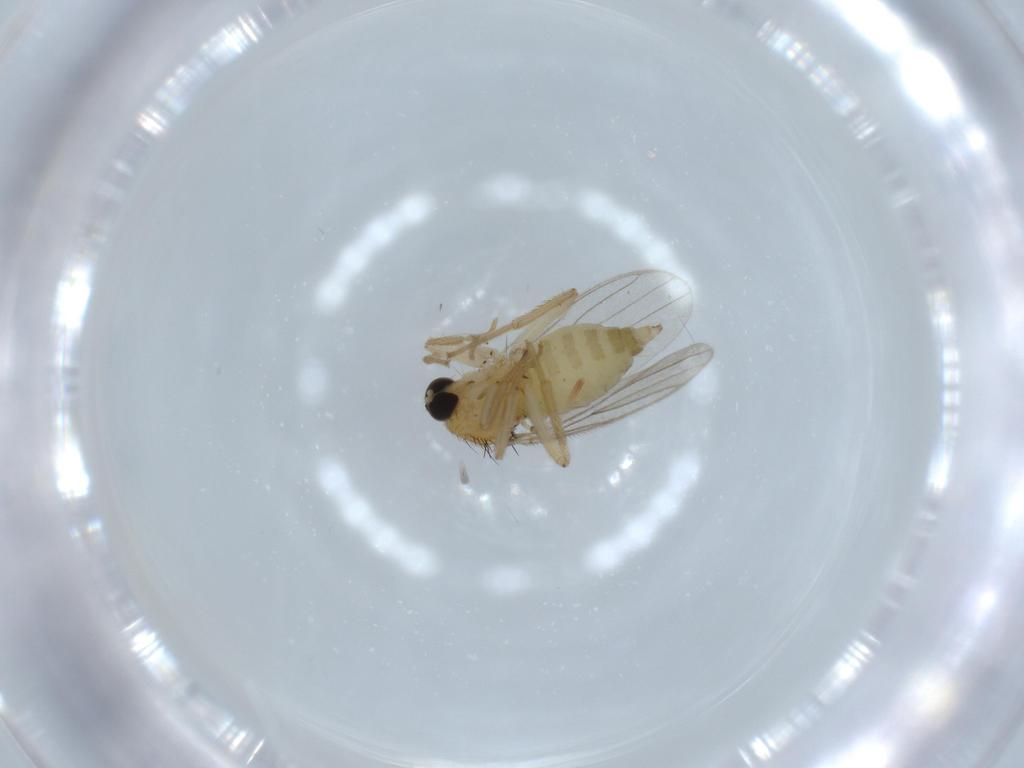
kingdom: Animalia
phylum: Arthropoda
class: Insecta
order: Diptera
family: Hybotidae
